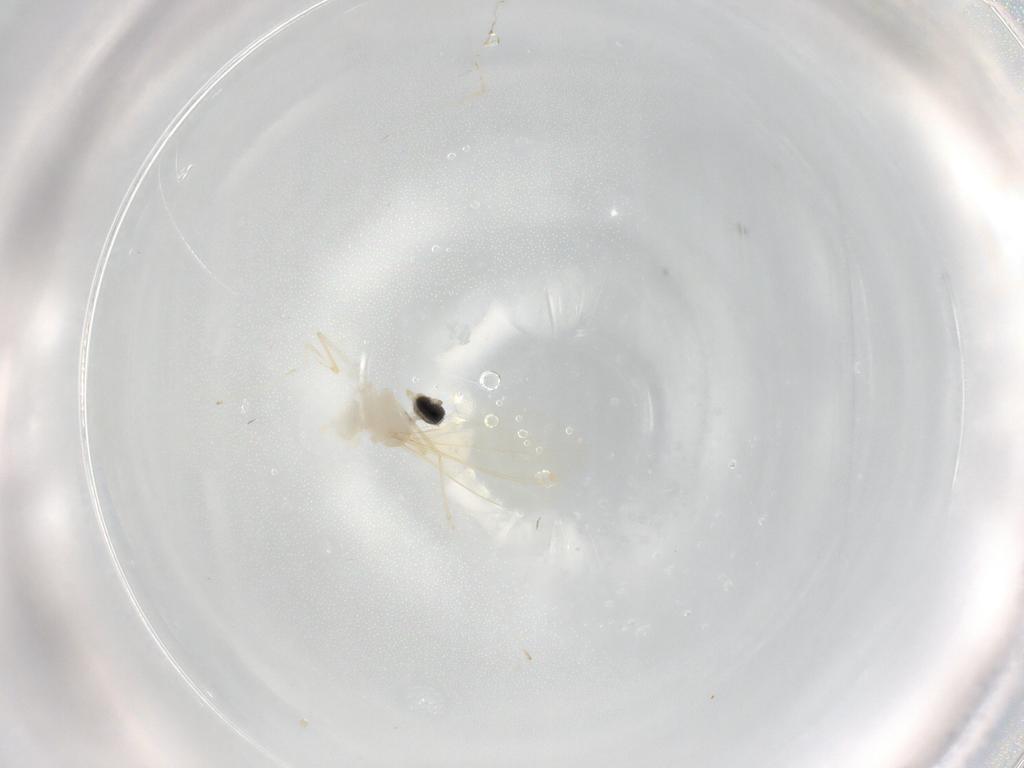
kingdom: Animalia
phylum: Arthropoda
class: Insecta
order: Diptera
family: Cecidomyiidae
